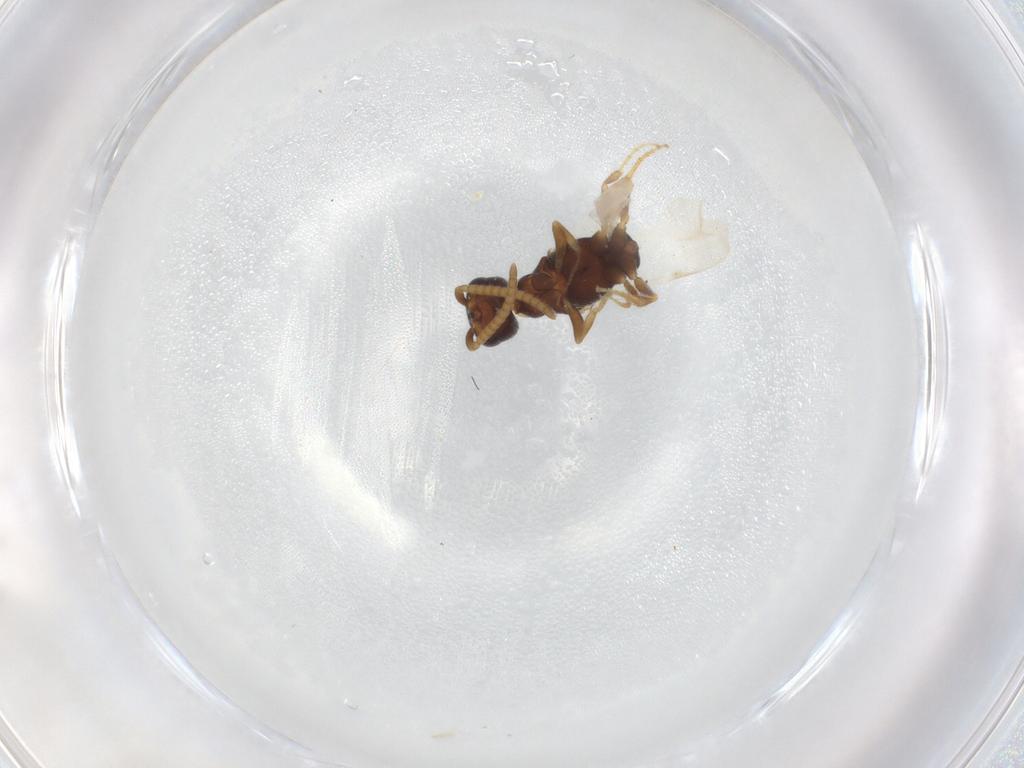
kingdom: Animalia
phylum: Arthropoda
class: Insecta
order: Hymenoptera
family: Bethylidae
